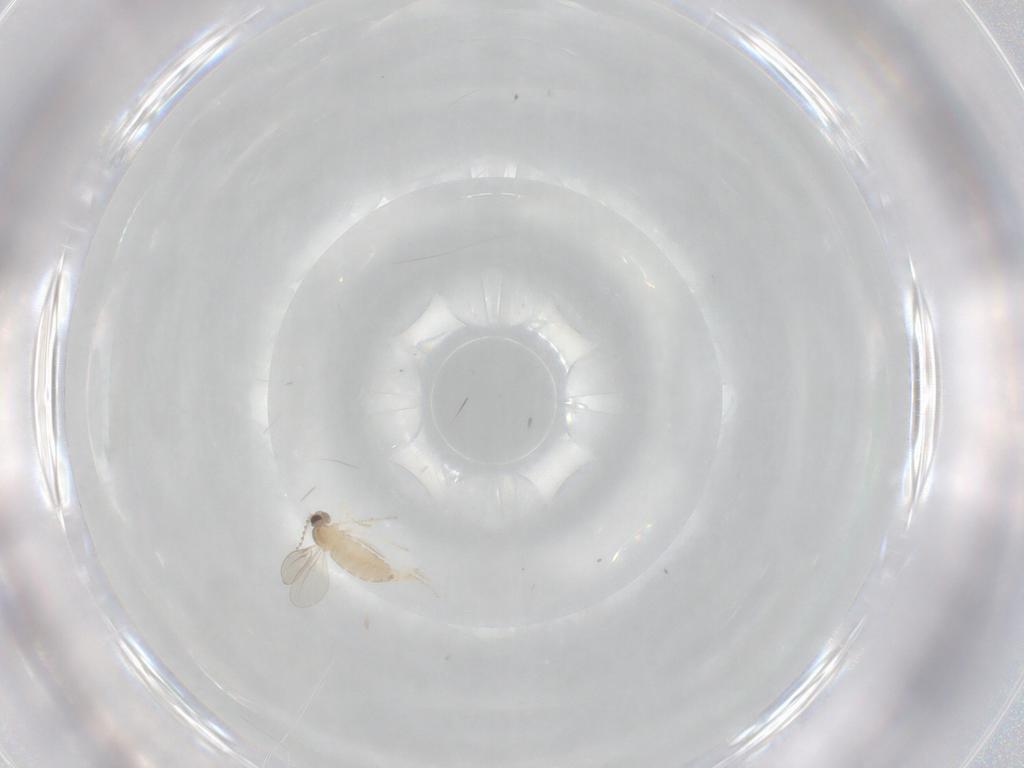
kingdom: Animalia
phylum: Arthropoda
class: Insecta
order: Diptera
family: Cecidomyiidae
